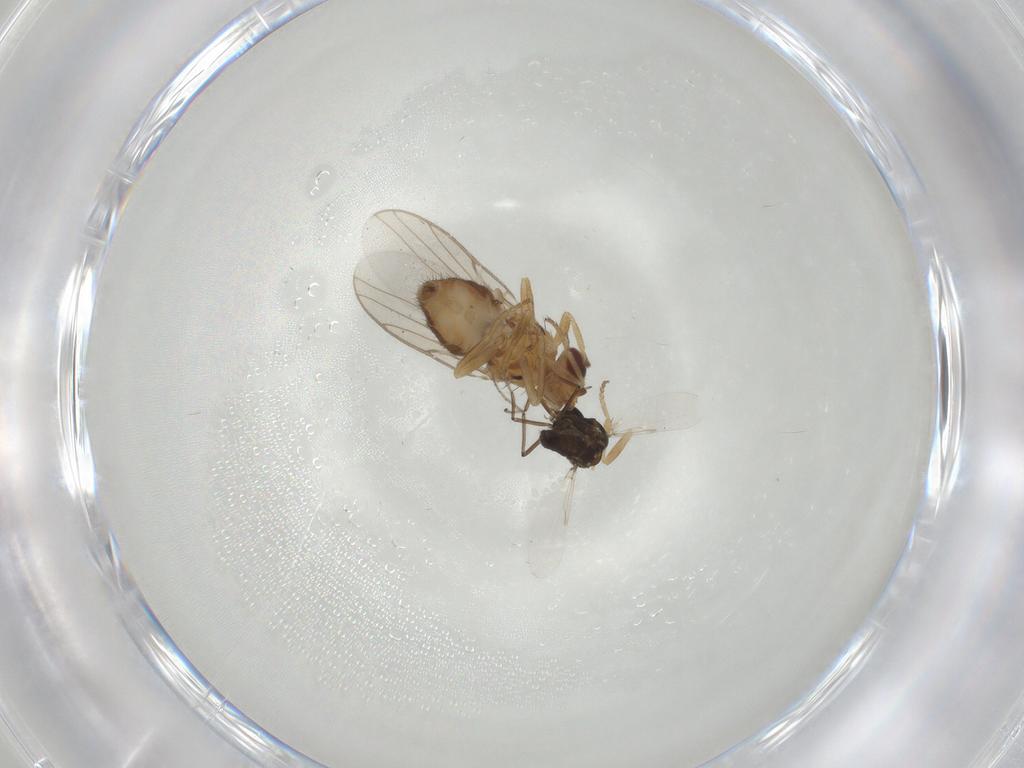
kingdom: Animalia
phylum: Arthropoda
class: Insecta
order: Diptera
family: Chloropidae
